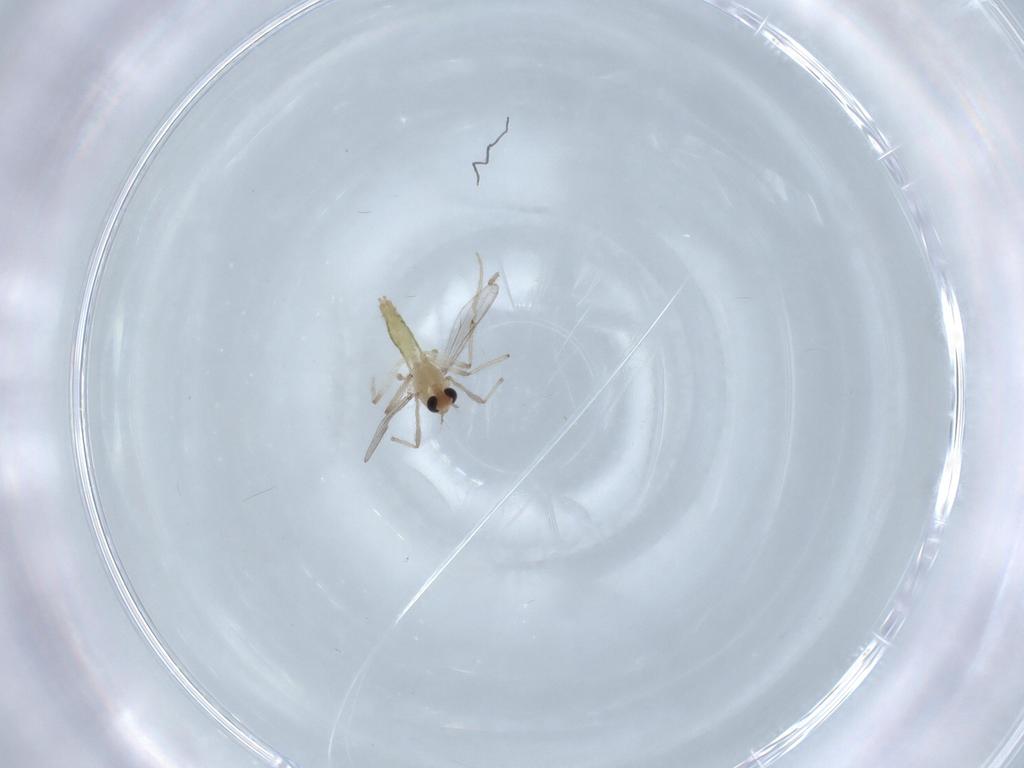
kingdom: Animalia
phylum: Arthropoda
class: Insecta
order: Diptera
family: Chironomidae
